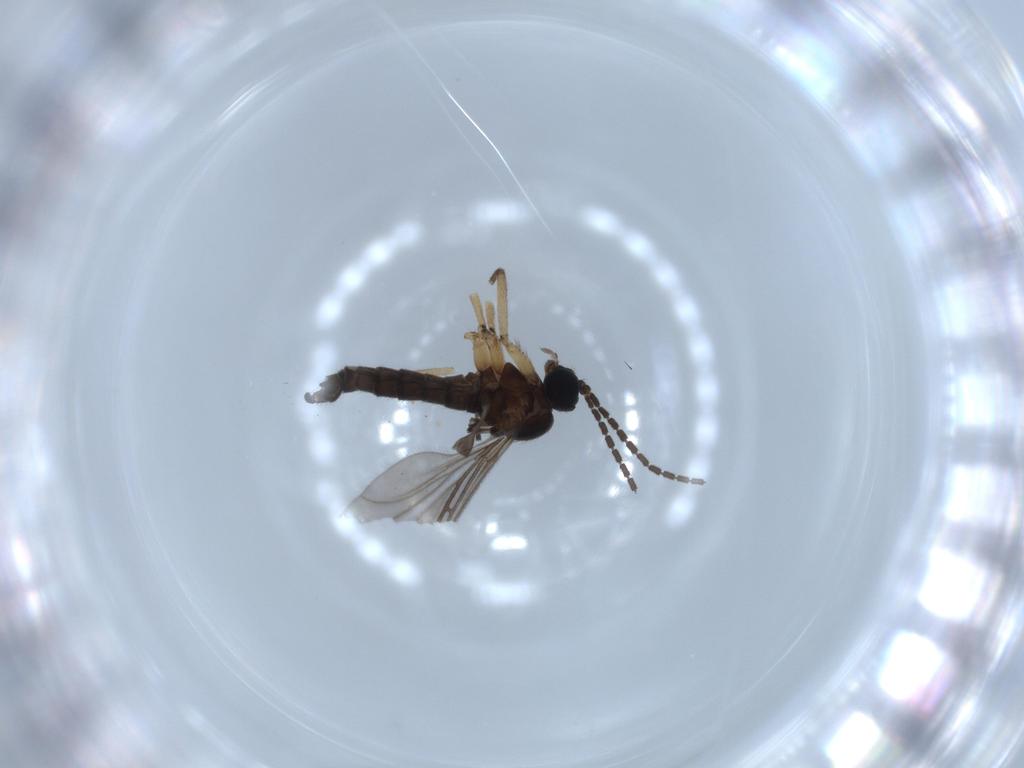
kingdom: Animalia
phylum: Arthropoda
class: Insecta
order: Diptera
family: Sciaridae
